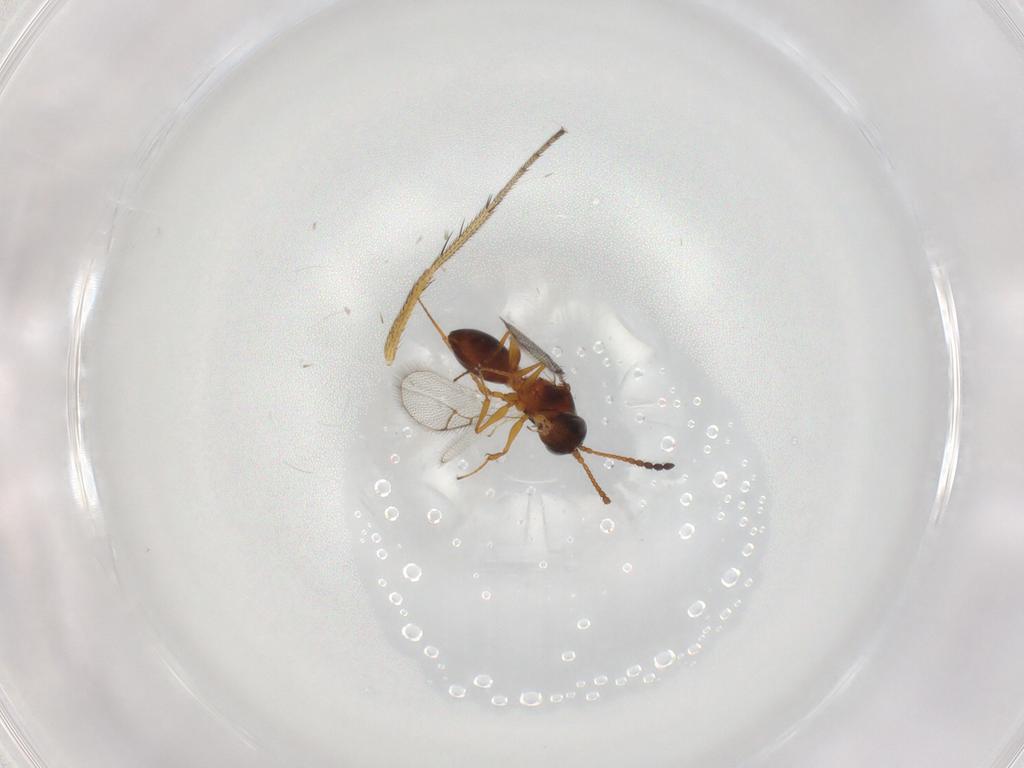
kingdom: Animalia
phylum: Arthropoda
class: Insecta
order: Hymenoptera
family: Figitidae
